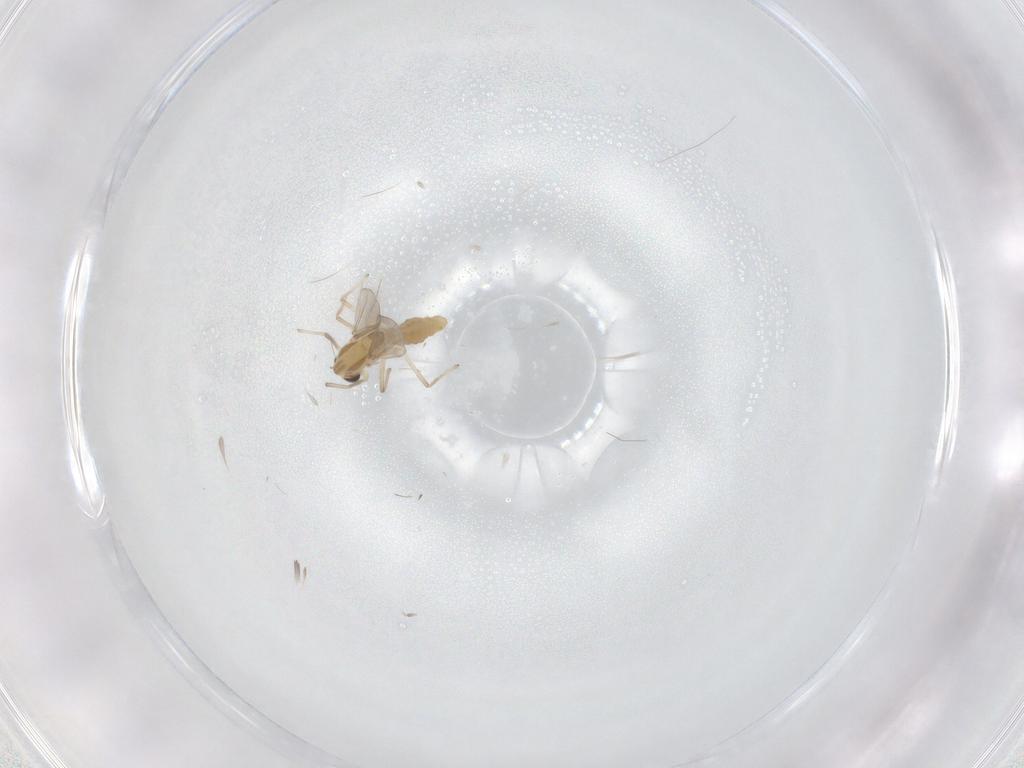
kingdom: Animalia
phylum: Arthropoda
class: Insecta
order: Diptera
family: Chironomidae
